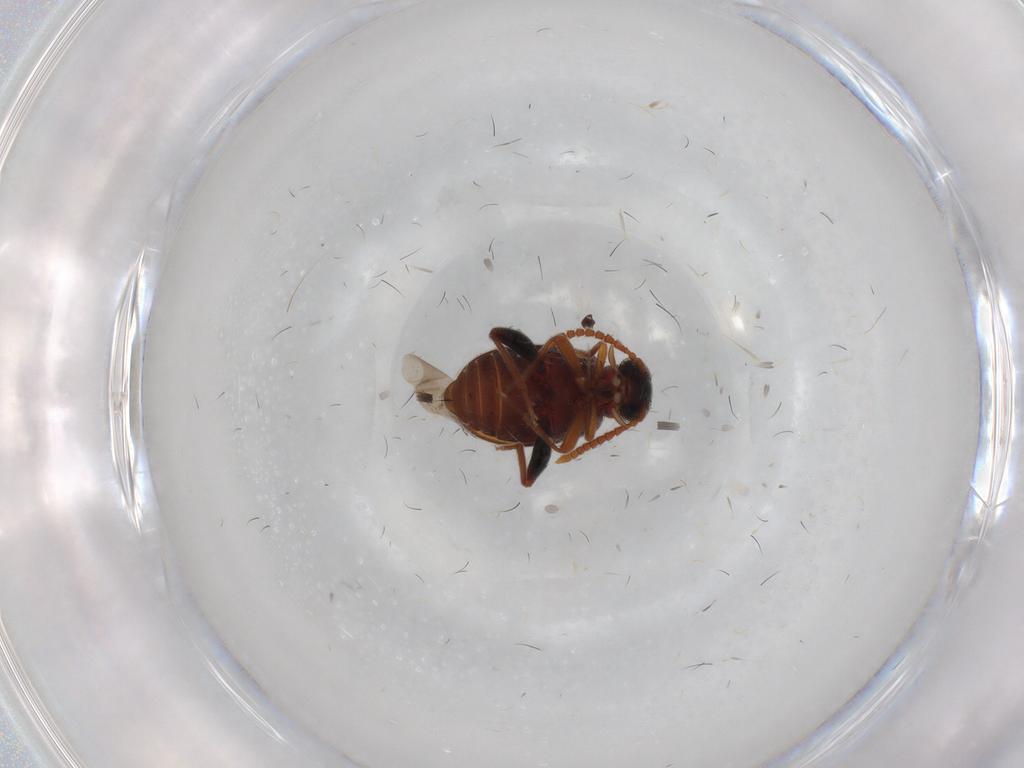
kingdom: Animalia
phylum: Arthropoda
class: Insecta
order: Coleoptera
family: Aderidae
